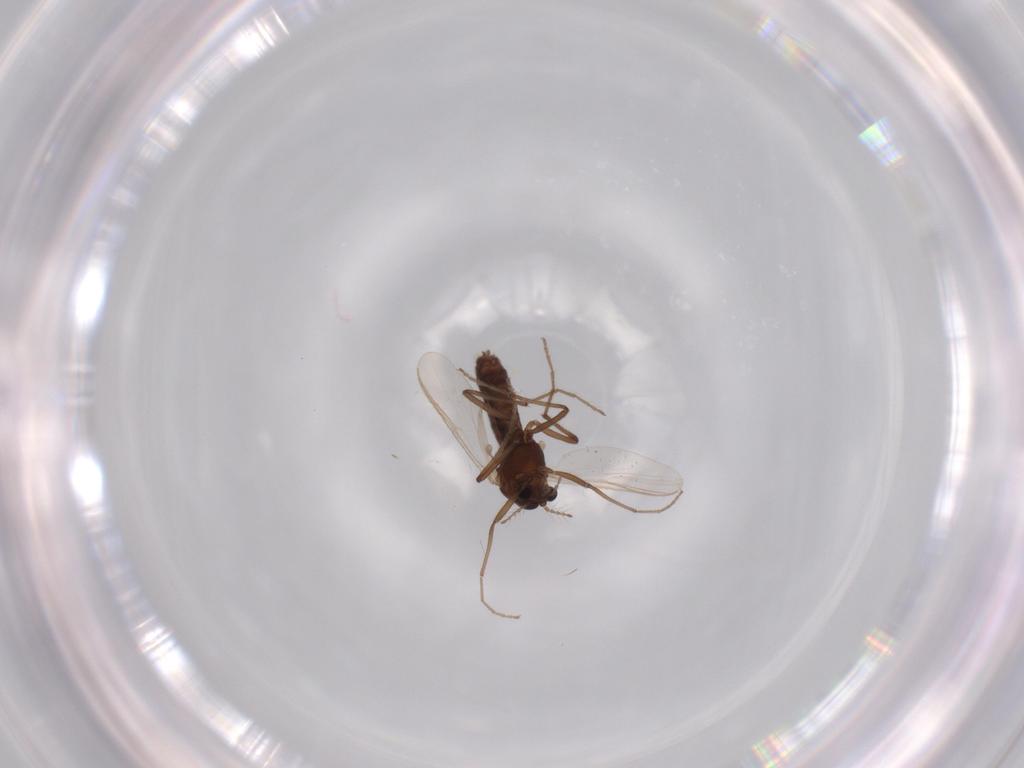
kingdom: Animalia
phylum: Arthropoda
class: Insecta
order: Diptera
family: Chironomidae
